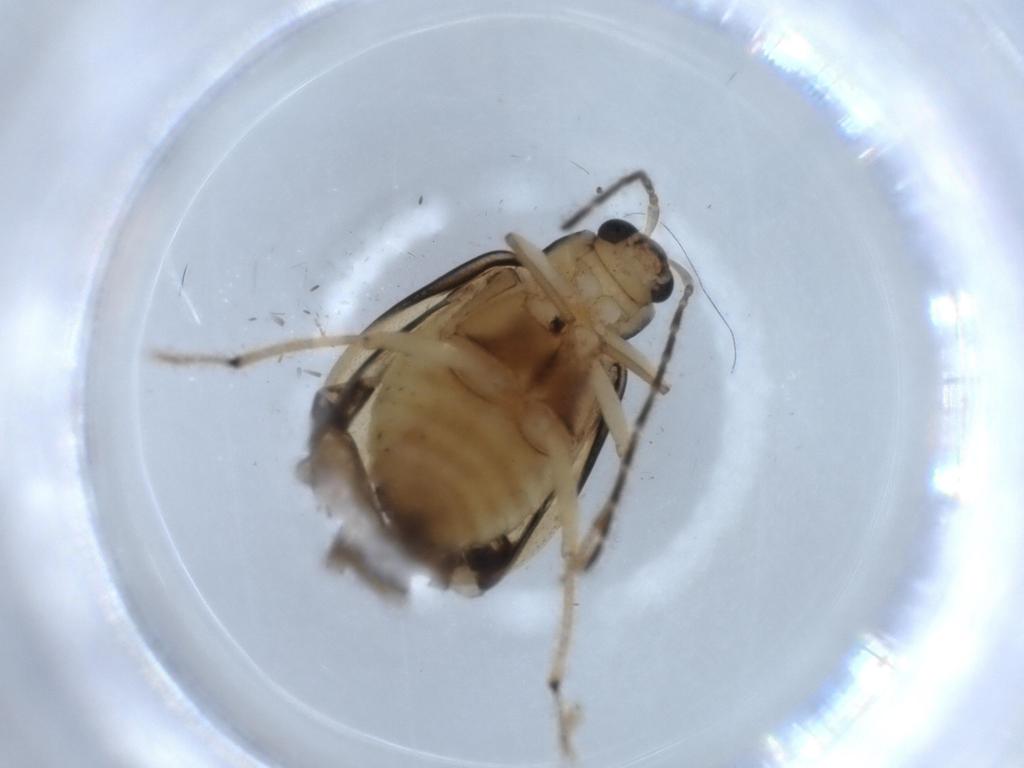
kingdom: Animalia
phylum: Arthropoda
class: Insecta
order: Coleoptera
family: Chrysomelidae
